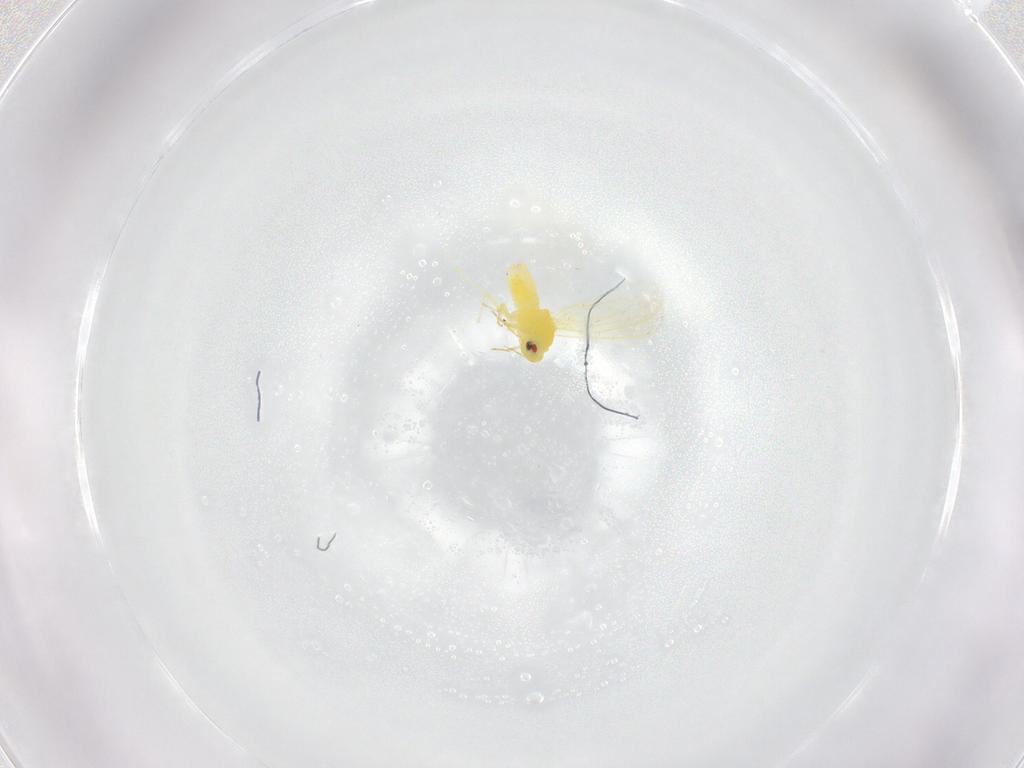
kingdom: Animalia
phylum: Arthropoda
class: Insecta
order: Hemiptera
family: Aleyrodidae
